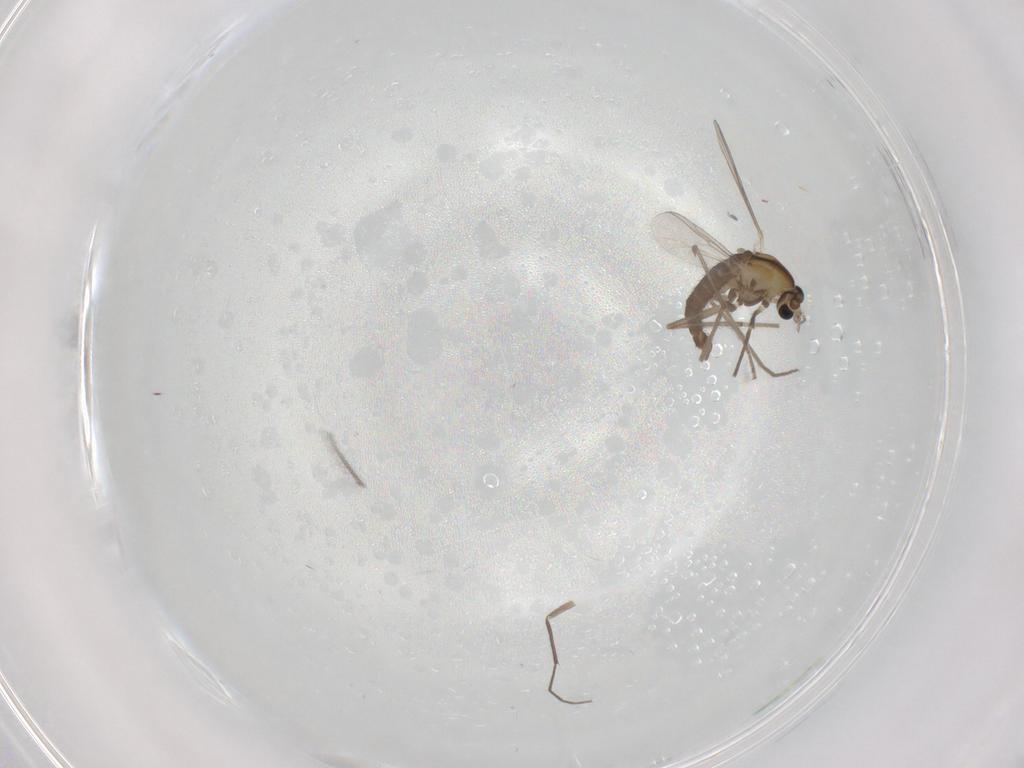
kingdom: Animalia
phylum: Arthropoda
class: Insecta
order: Diptera
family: Chironomidae
